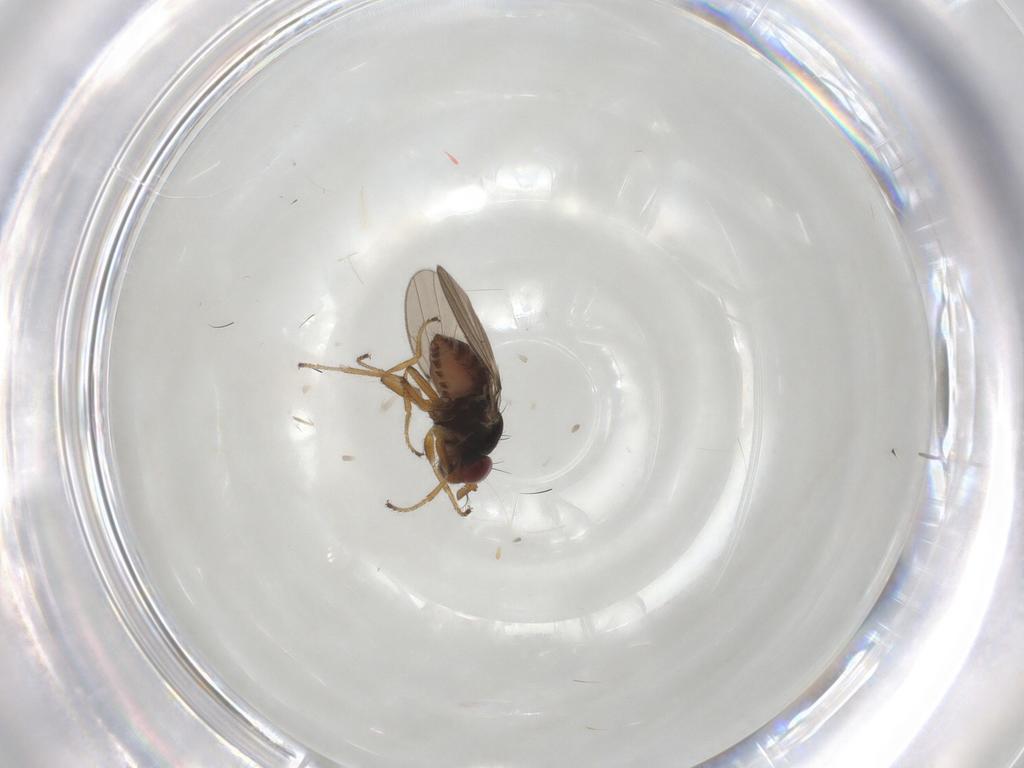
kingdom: Animalia
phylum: Arthropoda
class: Insecta
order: Diptera
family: Ephydridae
